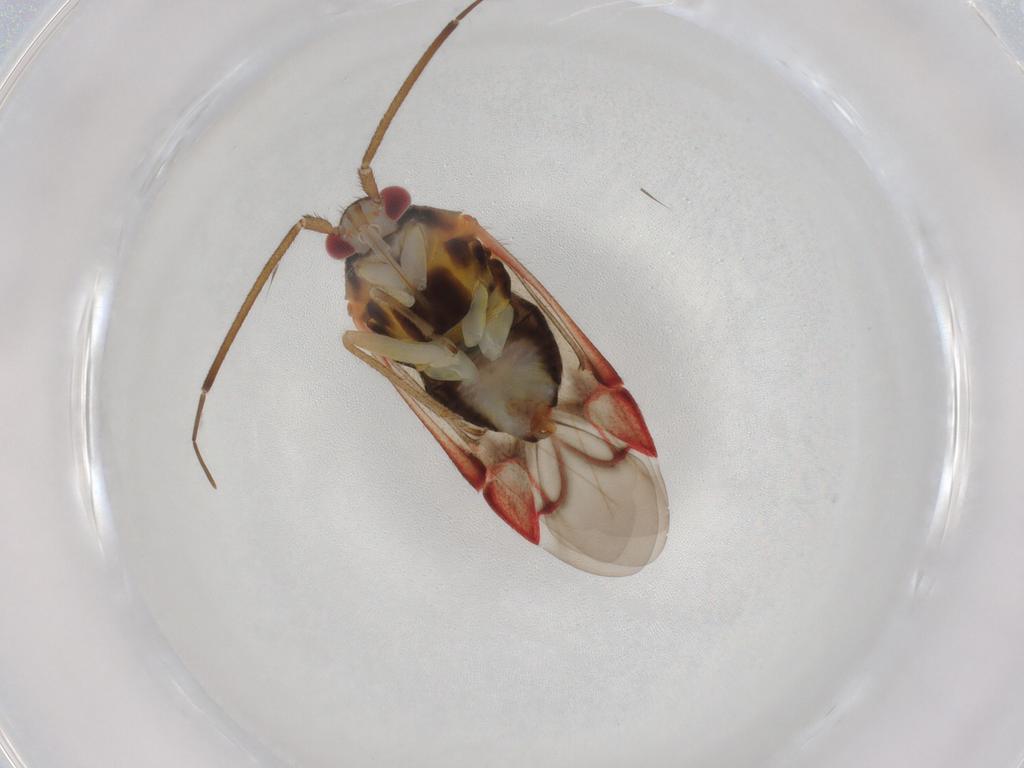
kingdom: Animalia
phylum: Arthropoda
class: Insecta
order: Hemiptera
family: Miridae
